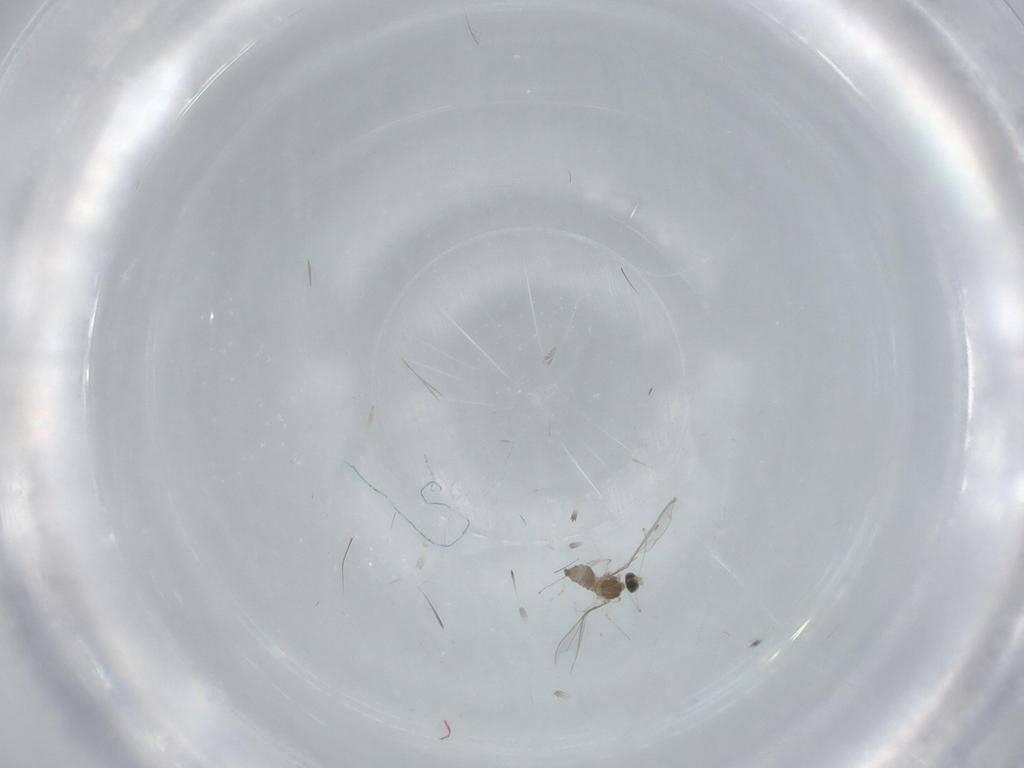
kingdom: Animalia
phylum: Arthropoda
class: Insecta
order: Diptera
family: Cecidomyiidae
